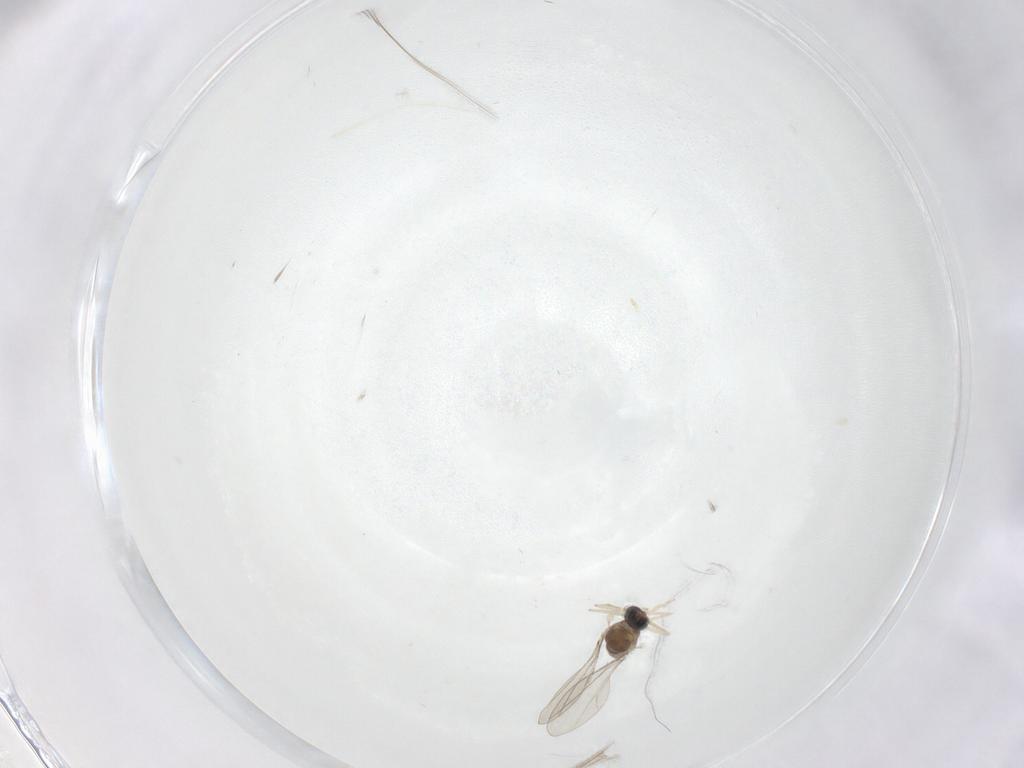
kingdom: Animalia
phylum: Arthropoda
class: Insecta
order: Diptera
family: Cecidomyiidae
